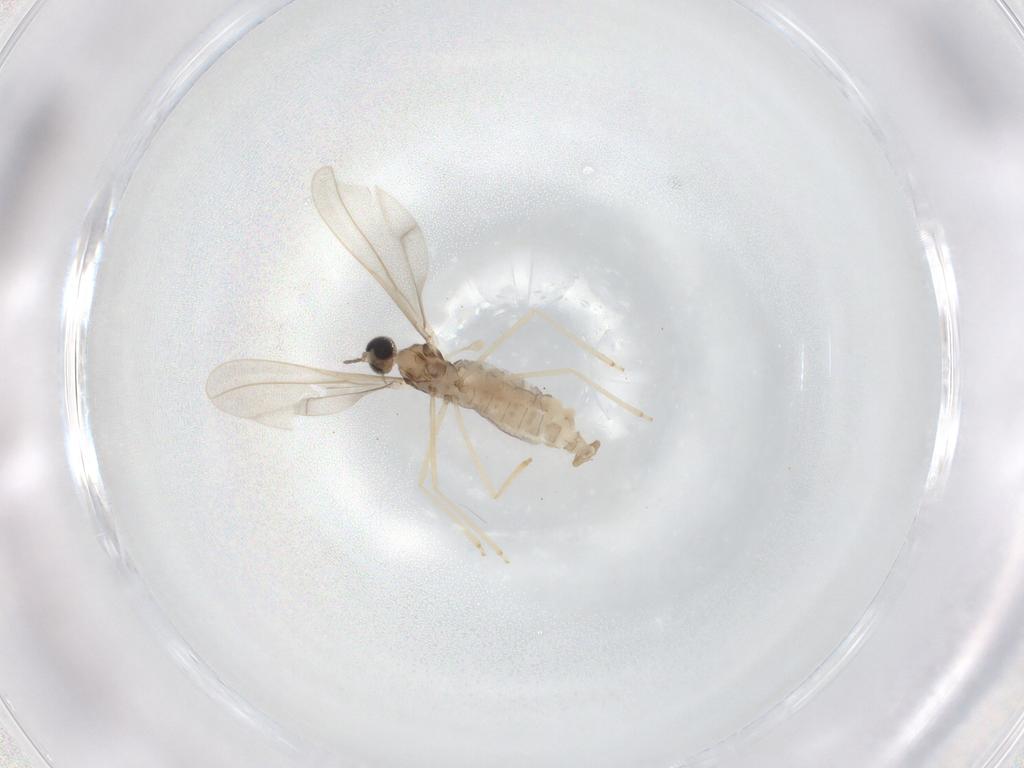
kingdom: Animalia
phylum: Arthropoda
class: Insecta
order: Diptera
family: Cecidomyiidae
